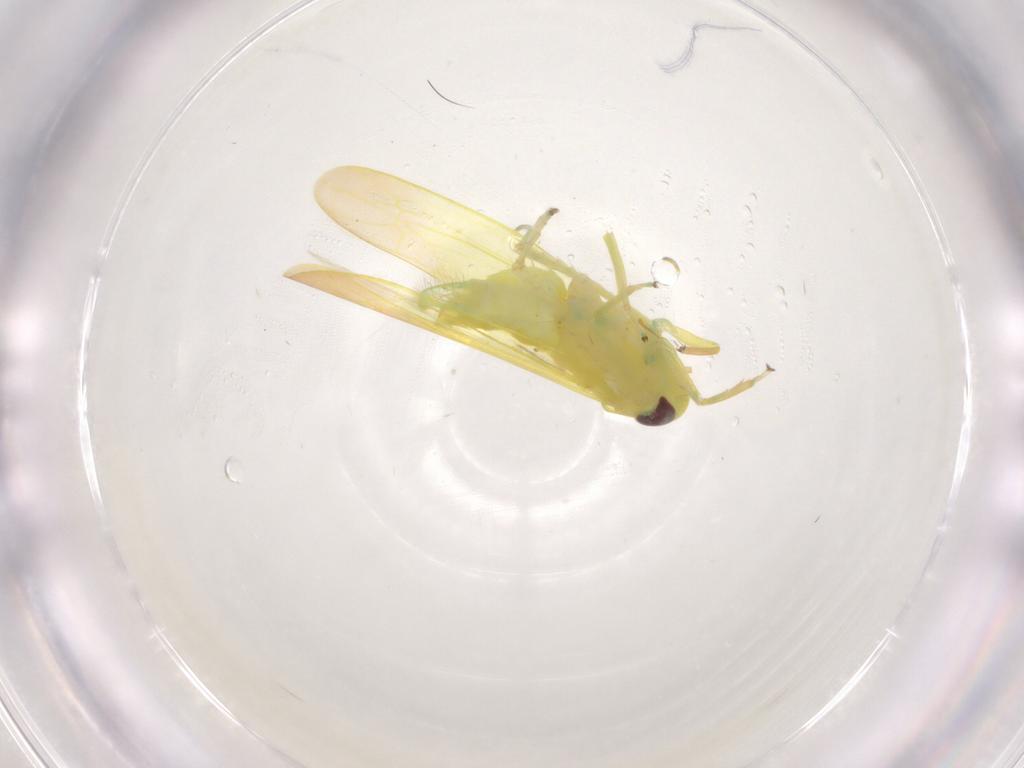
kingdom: Animalia
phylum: Arthropoda
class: Insecta
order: Hemiptera
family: Cicadellidae
